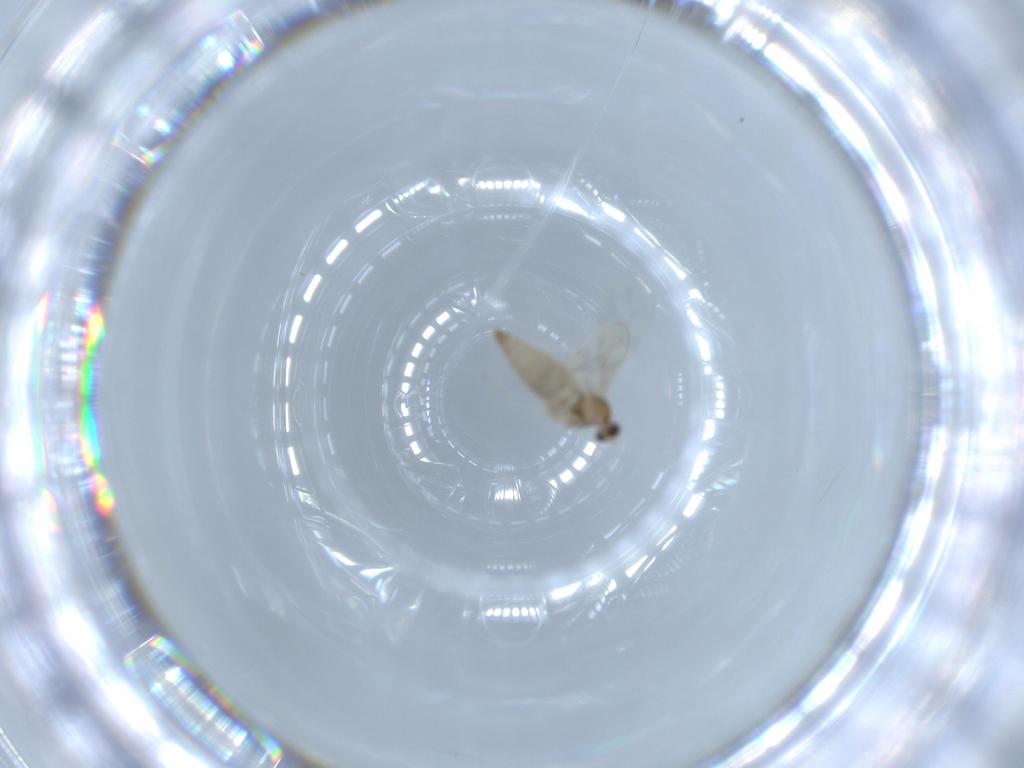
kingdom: Animalia
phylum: Arthropoda
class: Insecta
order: Diptera
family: Cecidomyiidae
